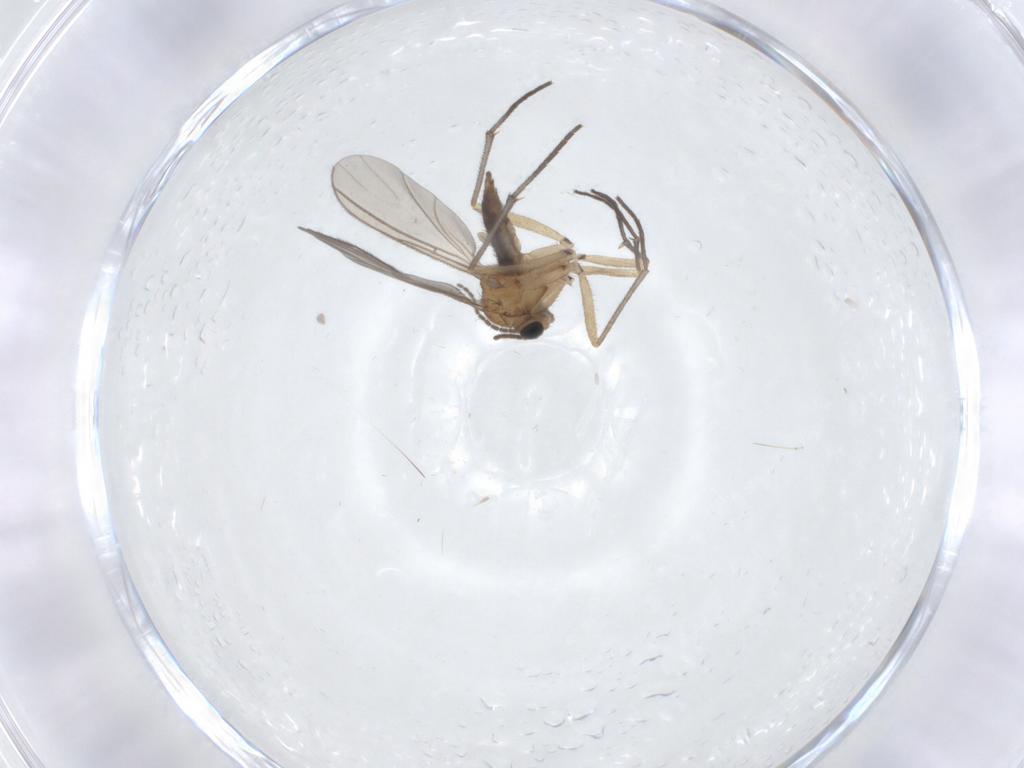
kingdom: Animalia
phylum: Arthropoda
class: Insecta
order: Diptera
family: Sciaridae
